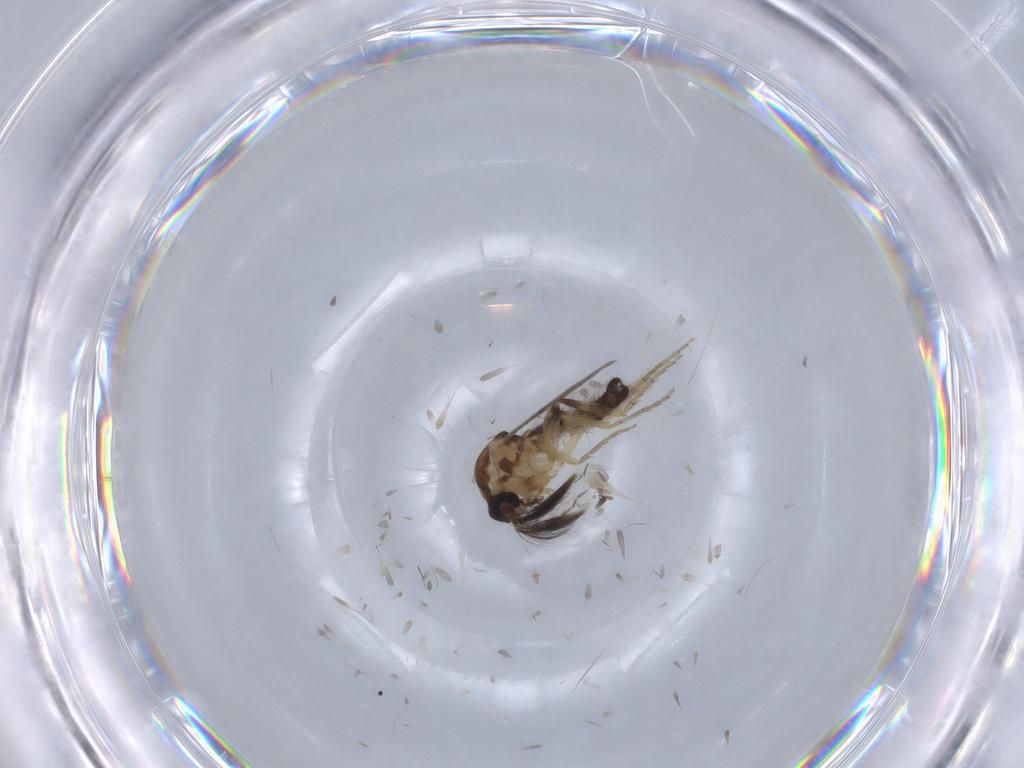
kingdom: Animalia
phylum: Arthropoda
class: Insecta
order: Diptera
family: Ceratopogonidae
